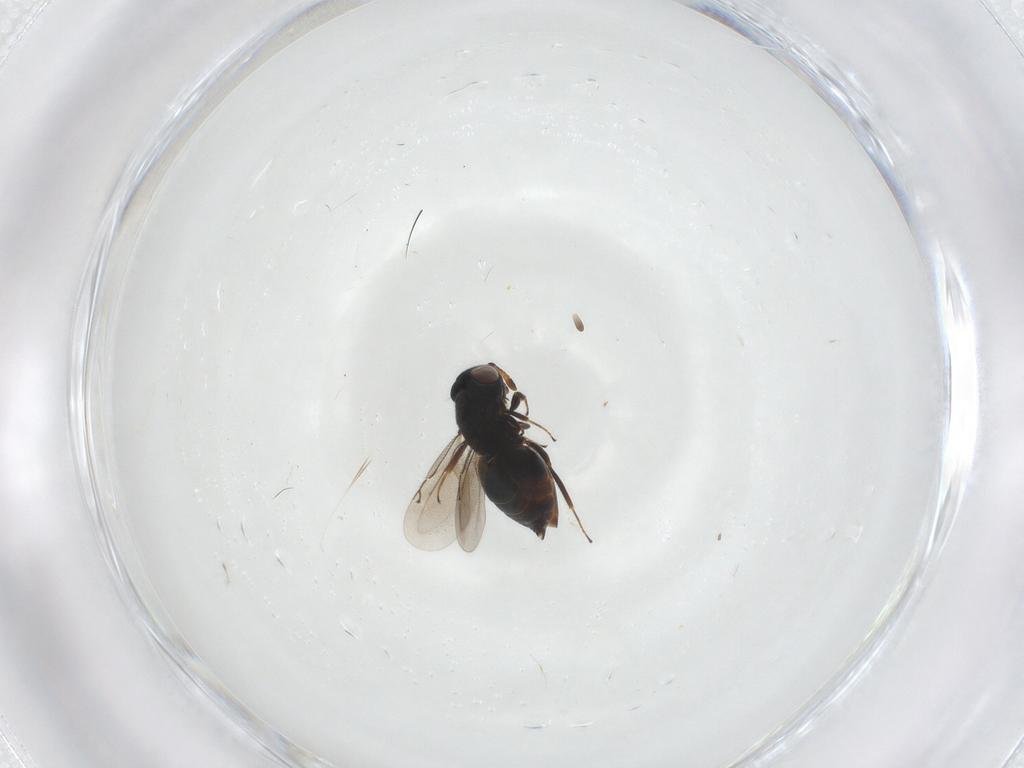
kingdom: Animalia
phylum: Arthropoda
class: Insecta
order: Hymenoptera
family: Eunotidae
